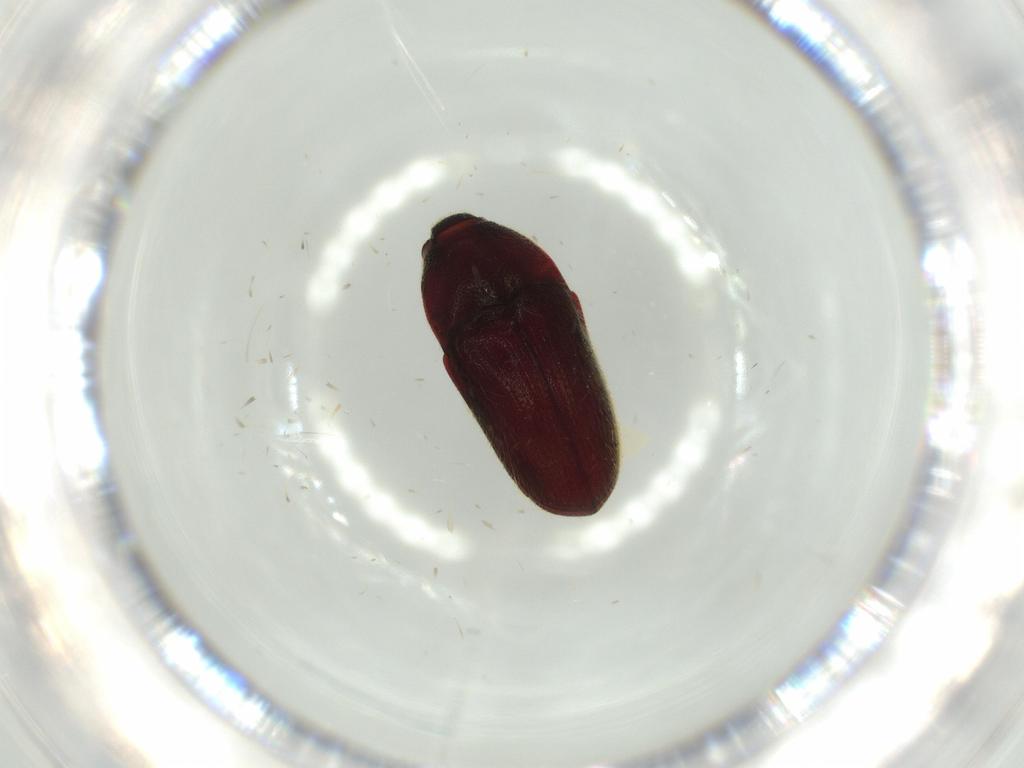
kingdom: Animalia
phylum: Arthropoda
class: Insecta
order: Coleoptera
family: Throscidae
